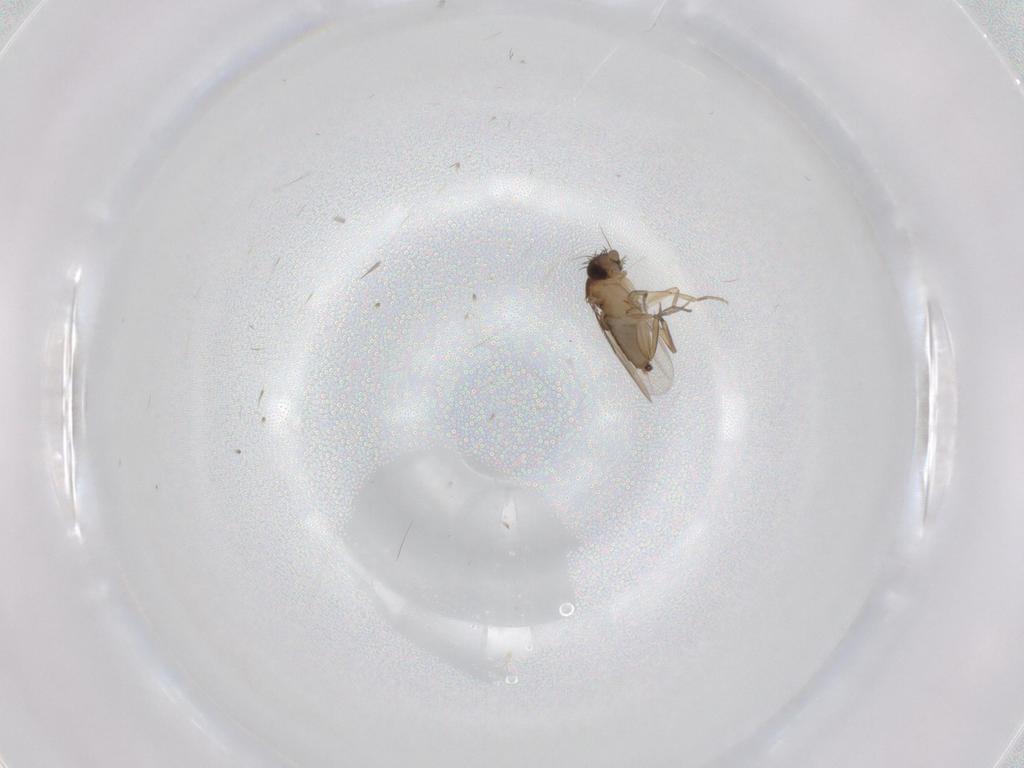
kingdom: Animalia
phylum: Arthropoda
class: Insecta
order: Diptera
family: Phoridae
